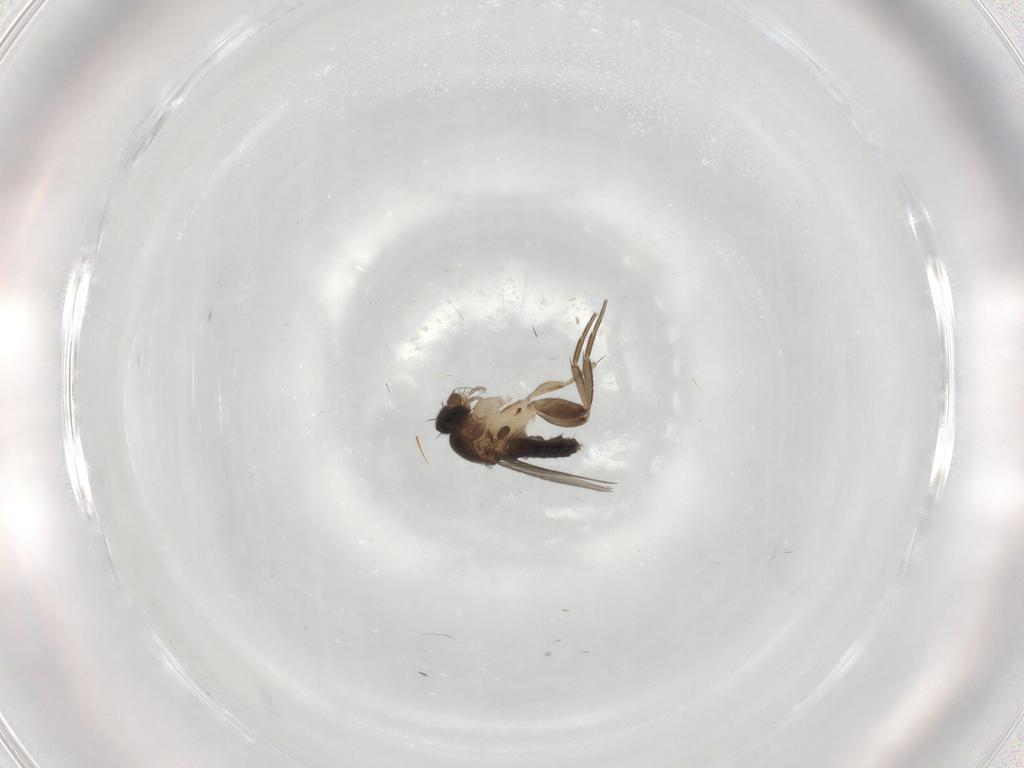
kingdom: Animalia
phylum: Arthropoda
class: Insecta
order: Diptera
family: Phoridae
